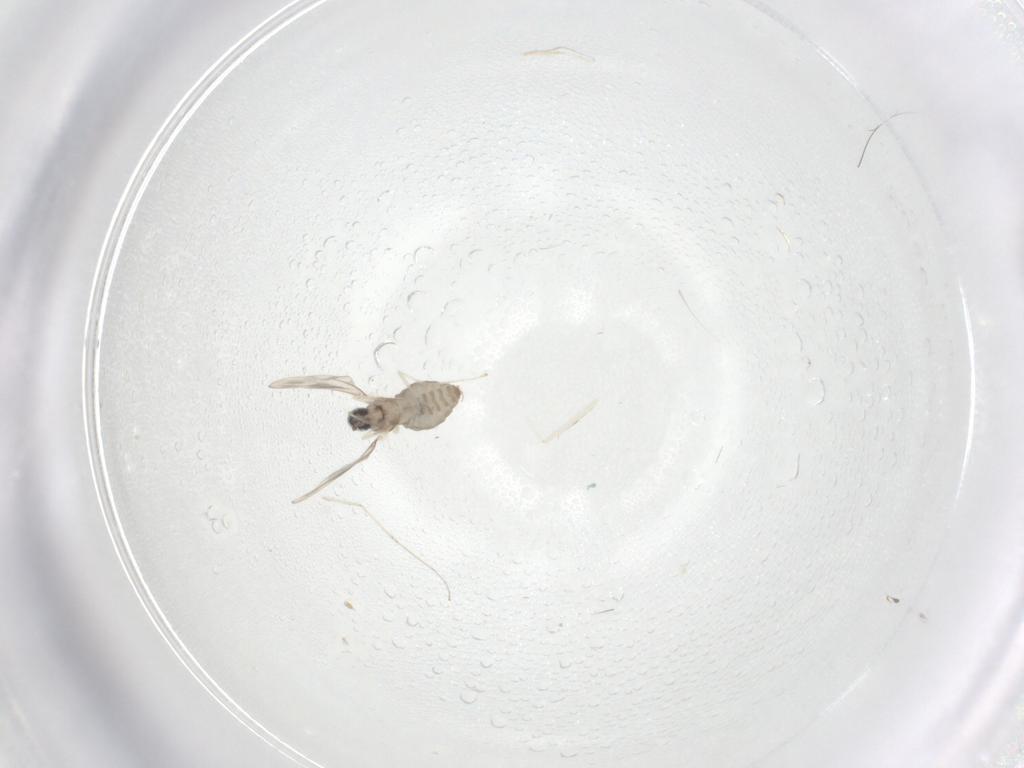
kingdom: Animalia
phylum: Arthropoda
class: Insecta
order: Diptera
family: Cecidomyiidae
